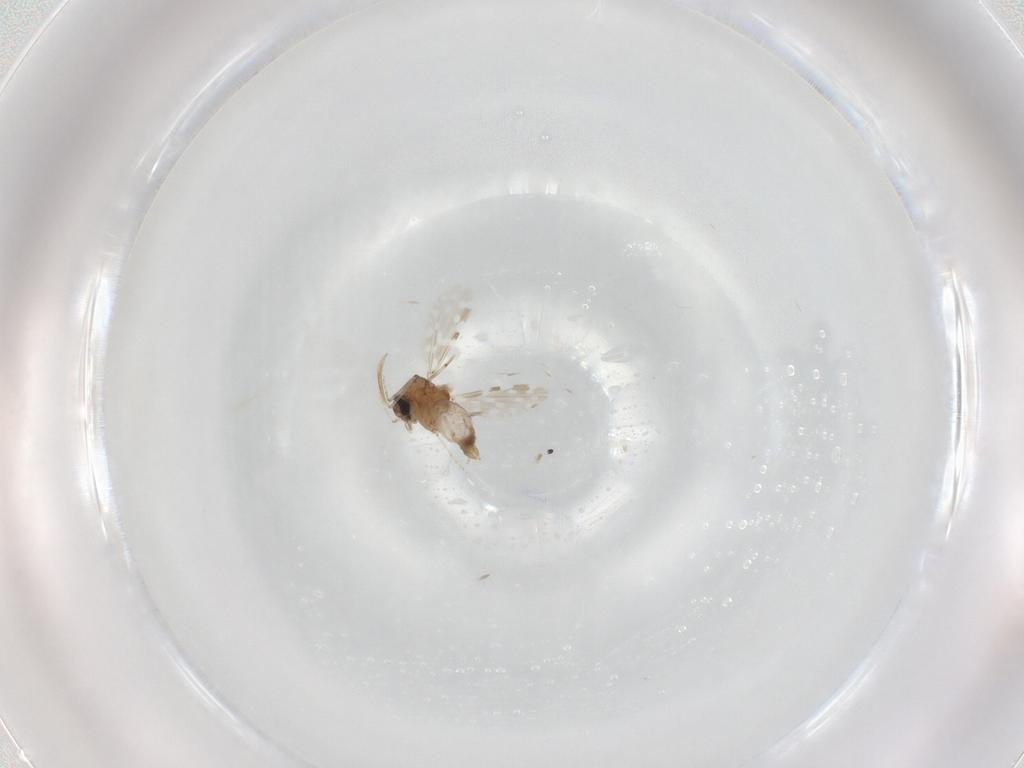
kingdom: Animalia
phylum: Arthropoda
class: Insecta
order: Diptera
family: Ceratopogonidae
